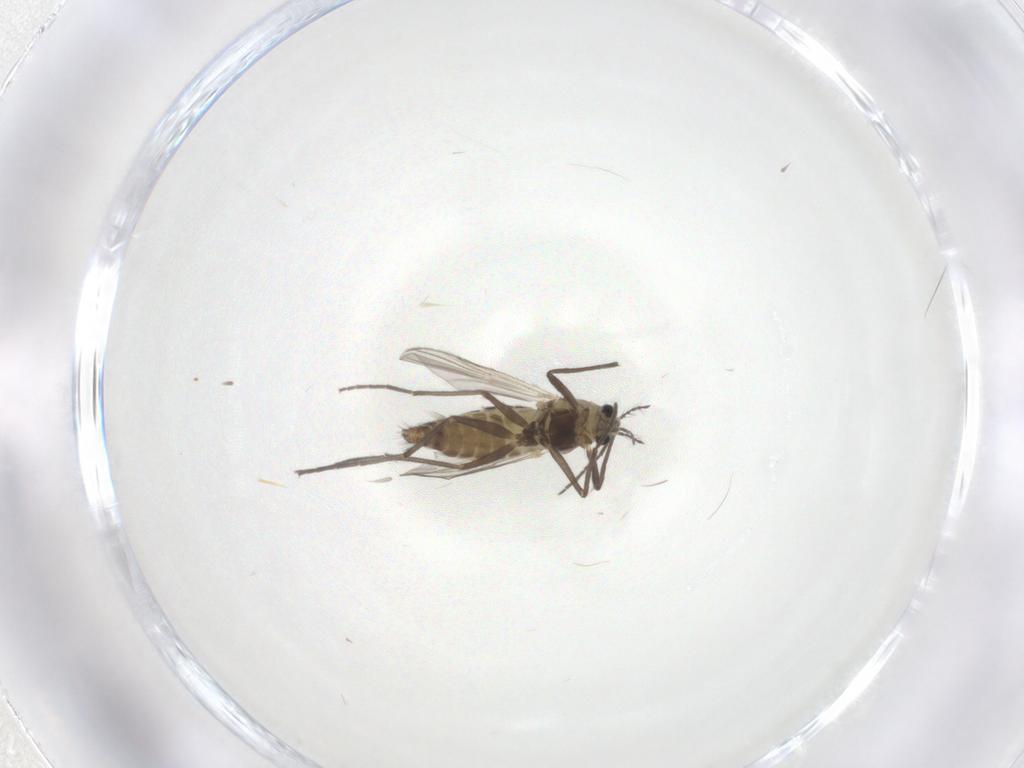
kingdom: Animalia
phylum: Arthropoda
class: Insecta
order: Diptera
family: Chironomidae
